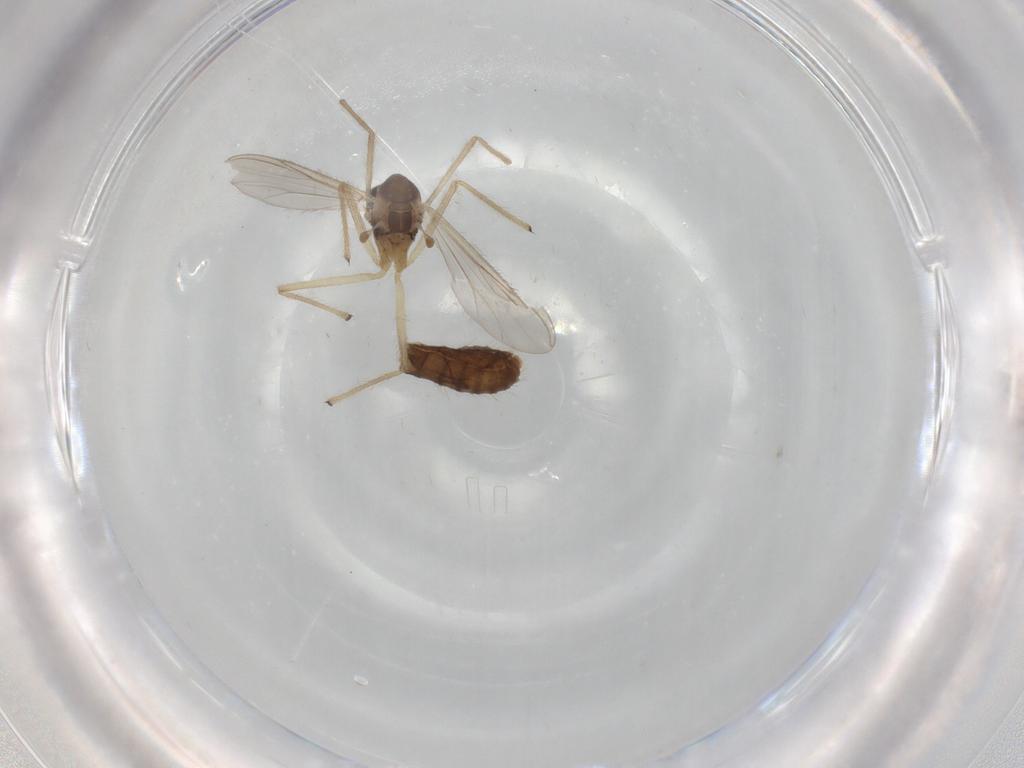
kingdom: Animalia
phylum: Arthropoda
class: Insecta
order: Diptera
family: Chironomidae
